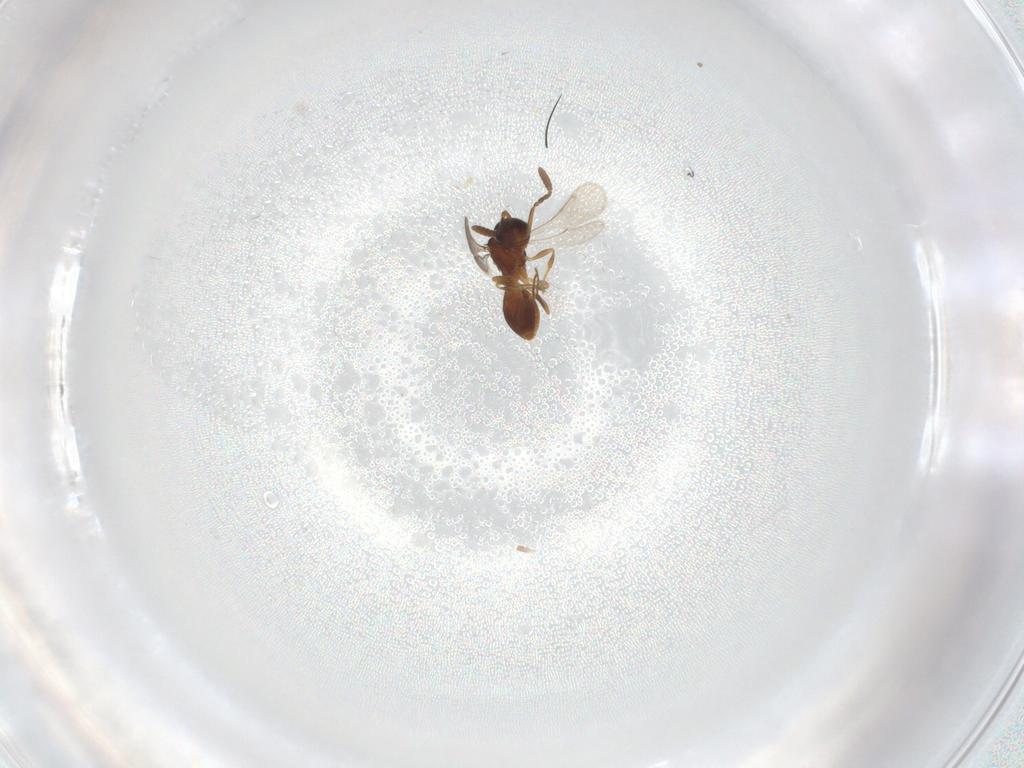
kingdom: Animalia
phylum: Arthropoda
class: Insecta
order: Hymenoptera
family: Scelionidae
